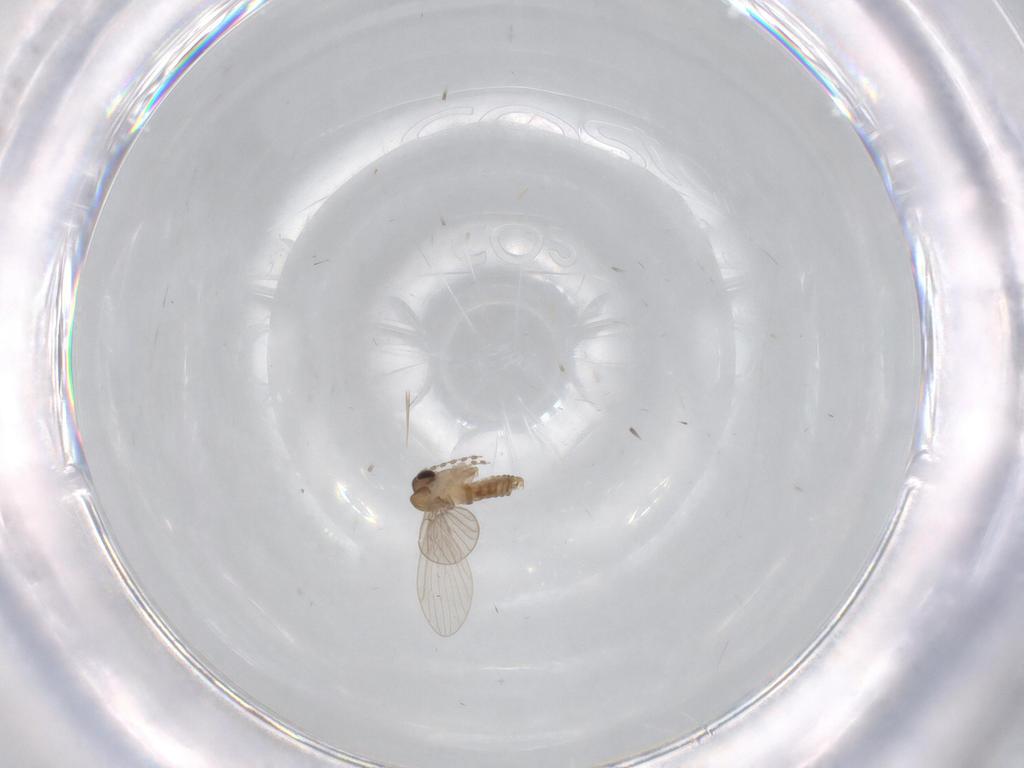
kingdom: Animalia
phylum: Arthropoda
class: Insecta
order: Diptera
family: Psychodidae
